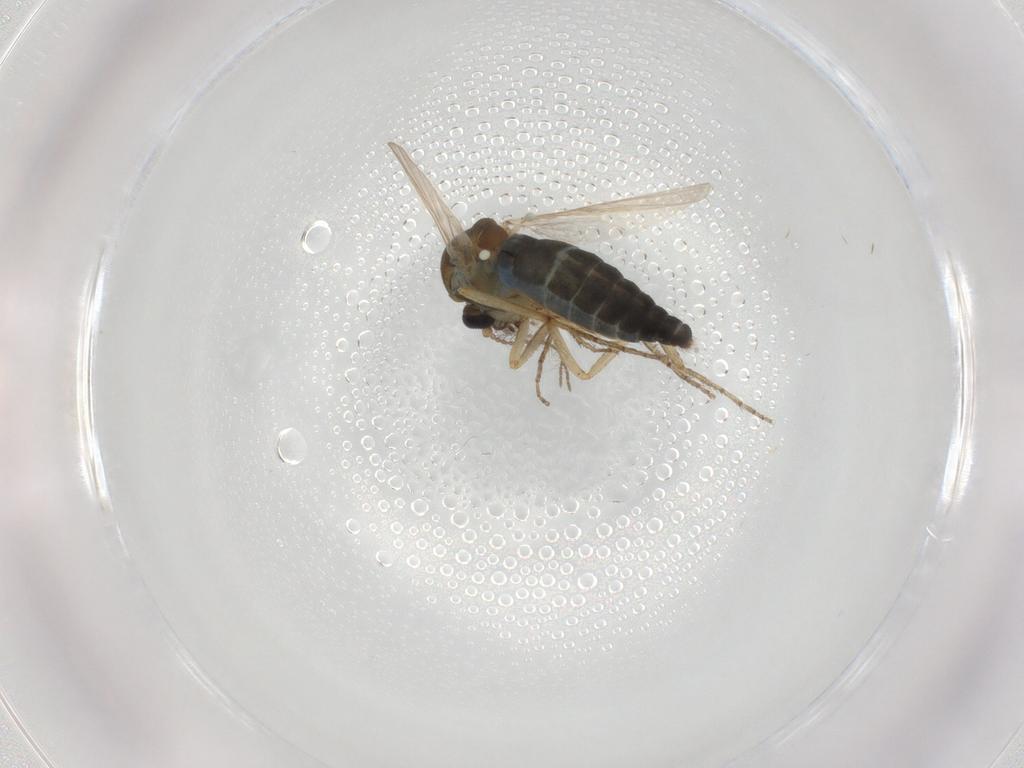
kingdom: Animalia
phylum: Arthropoda
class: Insecta
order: Diptera
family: Limoniidae
